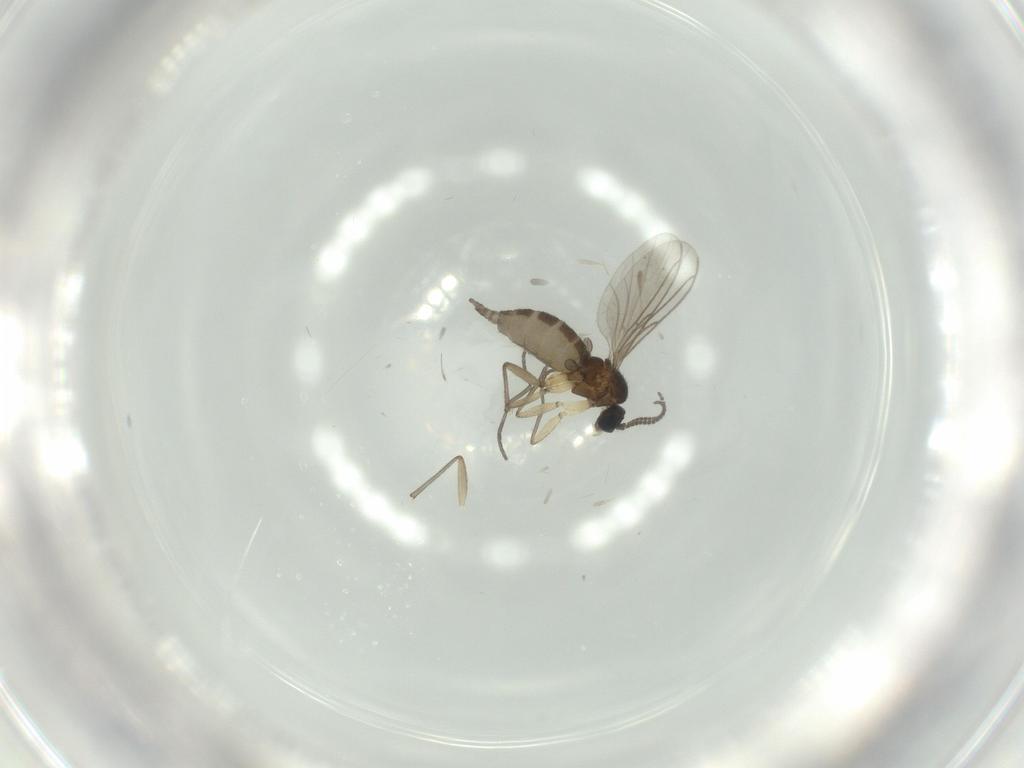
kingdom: Animalia
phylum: Arthropoda
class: Insecta
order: Diptera
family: Sciaridae
